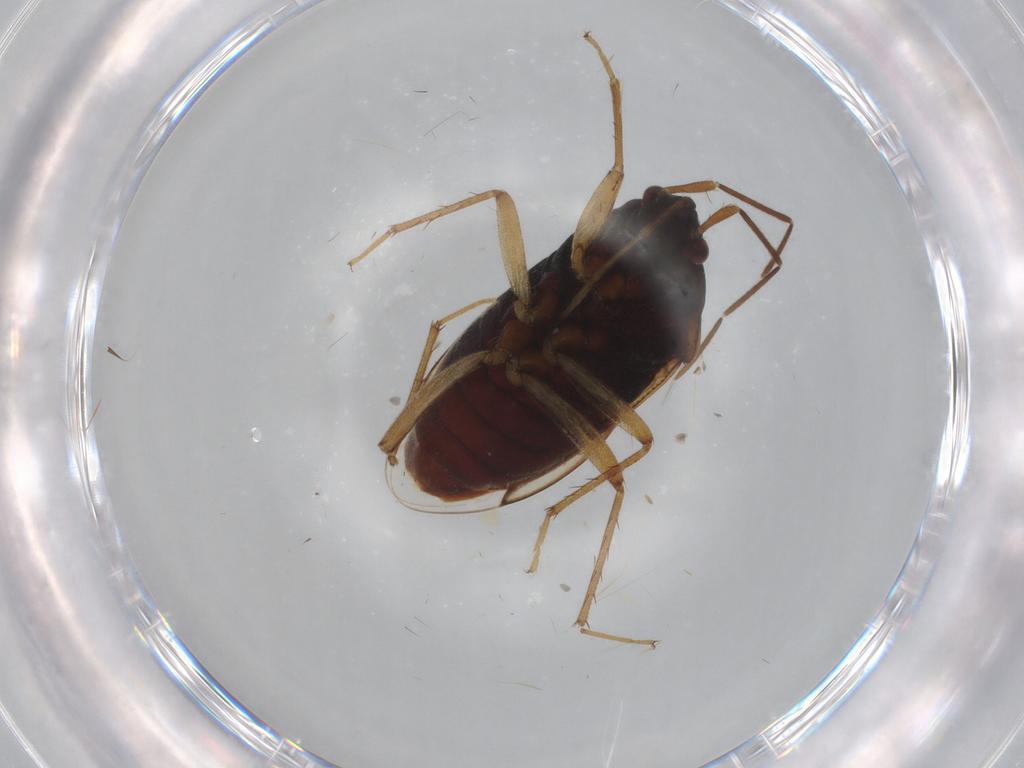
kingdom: Animalia
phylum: Arthropoda
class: Insecta
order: Hemiptera
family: Rhyparochromidae
